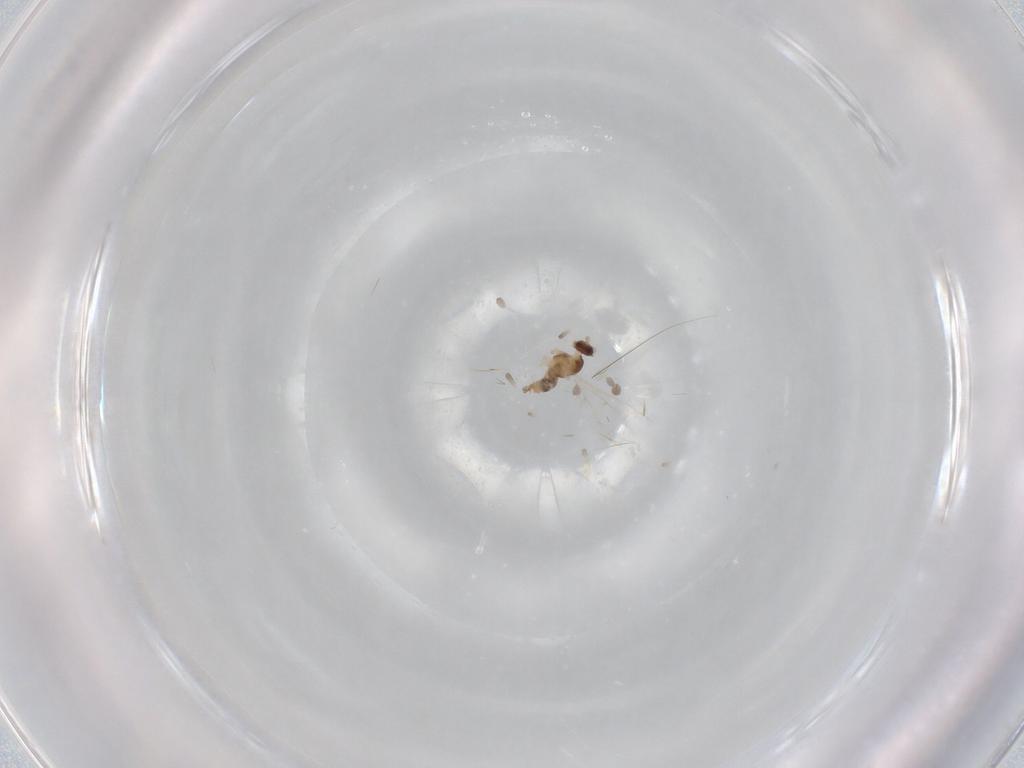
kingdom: Animalia
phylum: Arthropoda
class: Insecta
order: Diptera
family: Cecidomyiidae
